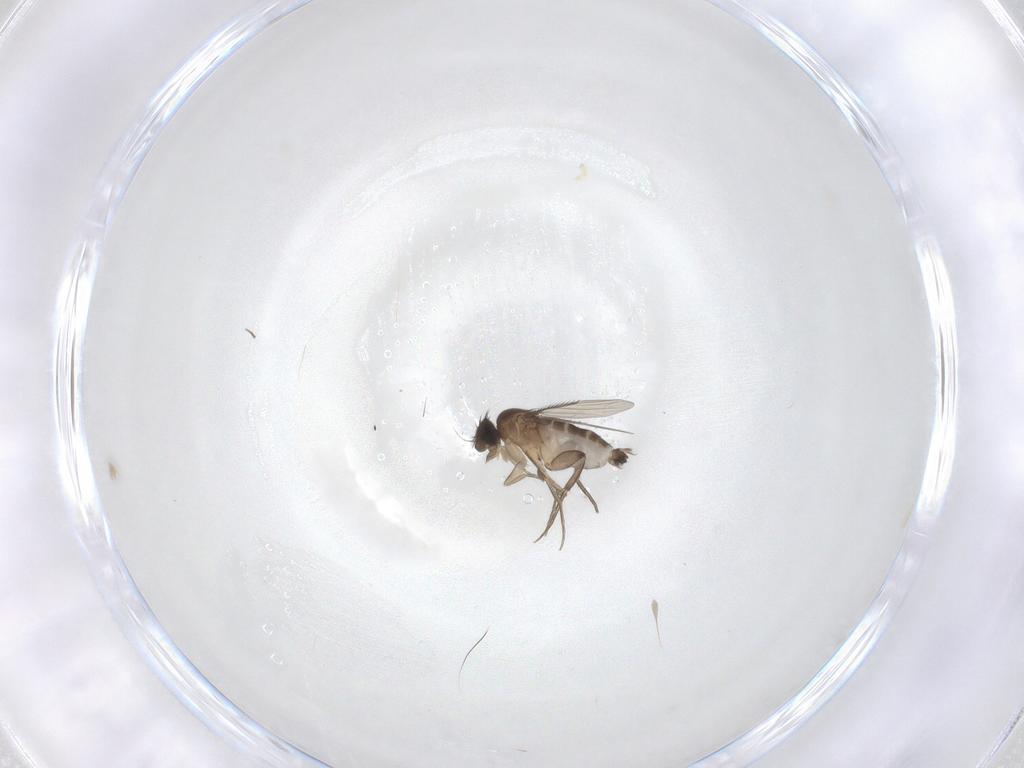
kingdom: Animalia
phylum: Arthropoda
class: Insecta
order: Diptera
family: Phoridae
